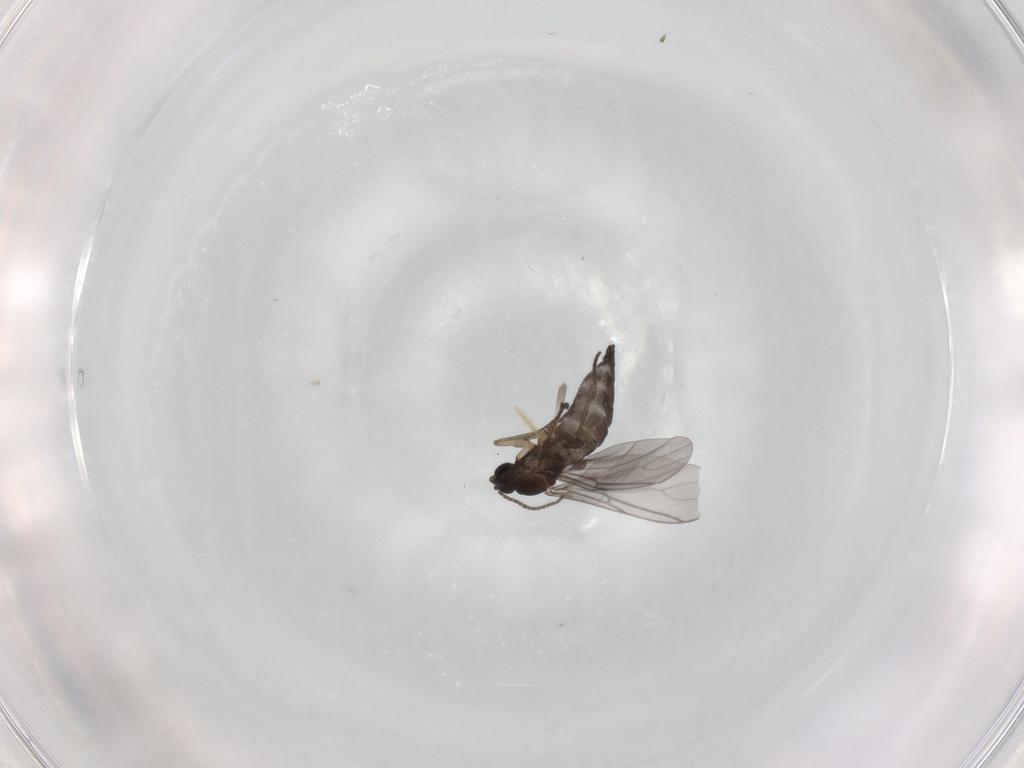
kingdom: Animalia
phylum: Arthropoda
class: Insecta
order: Diptera
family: Sciaridae
